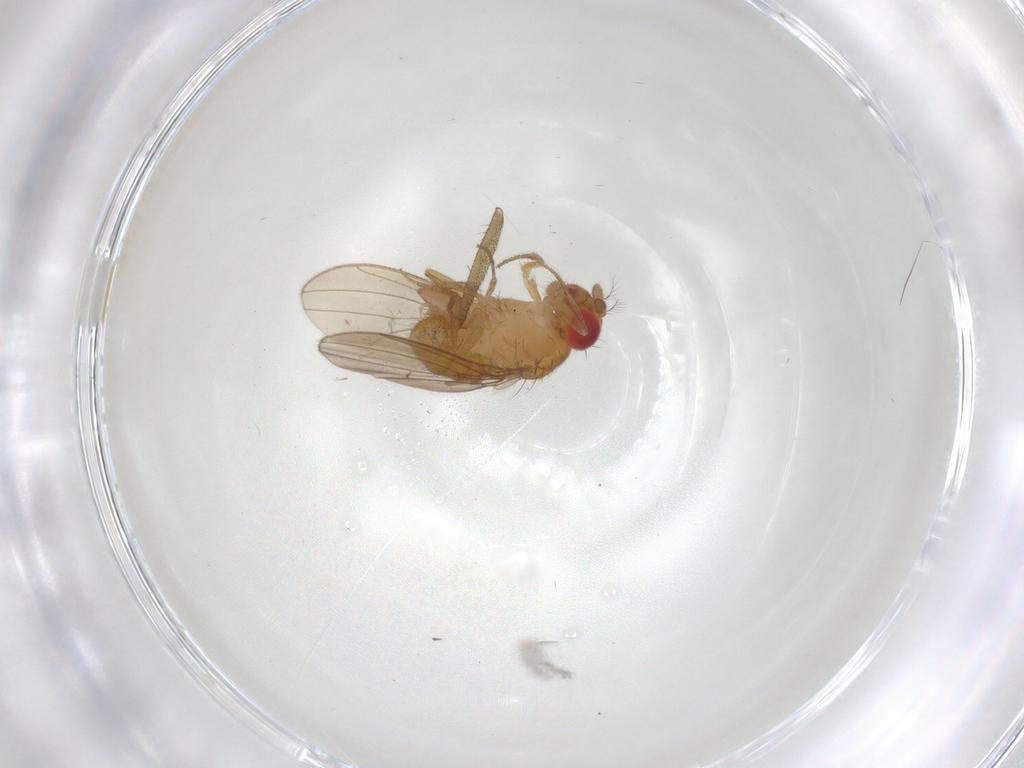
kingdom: Animalia
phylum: Arthropoda
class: Insecta
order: Diptera
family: Drosophilidae
